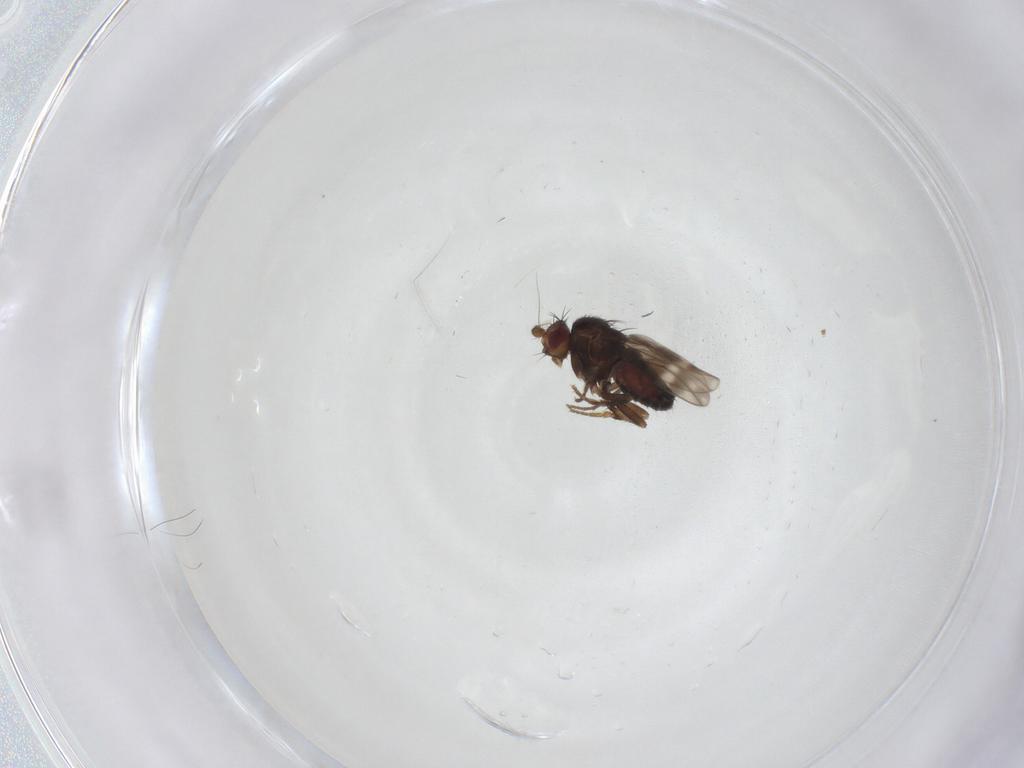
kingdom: Animalia
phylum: Arthropoda
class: Insecta
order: Diptera
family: Sphaeroceridae
